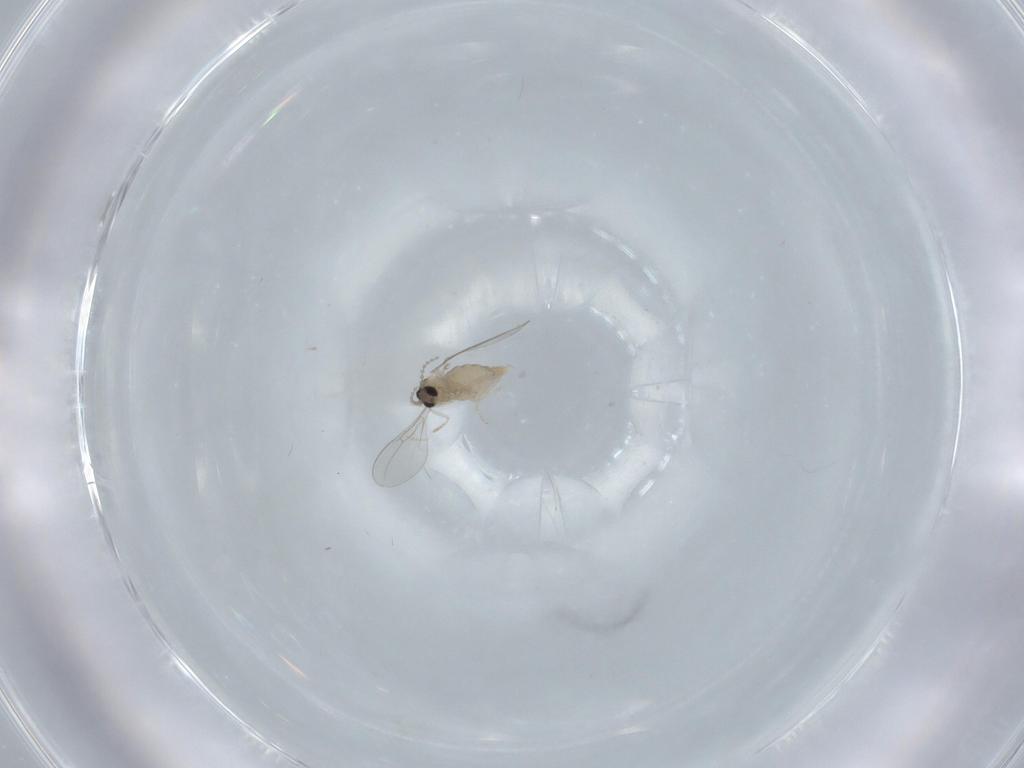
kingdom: Animalia
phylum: Arthropoda
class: Insecta
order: Diptera
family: Cecidomyiidae
